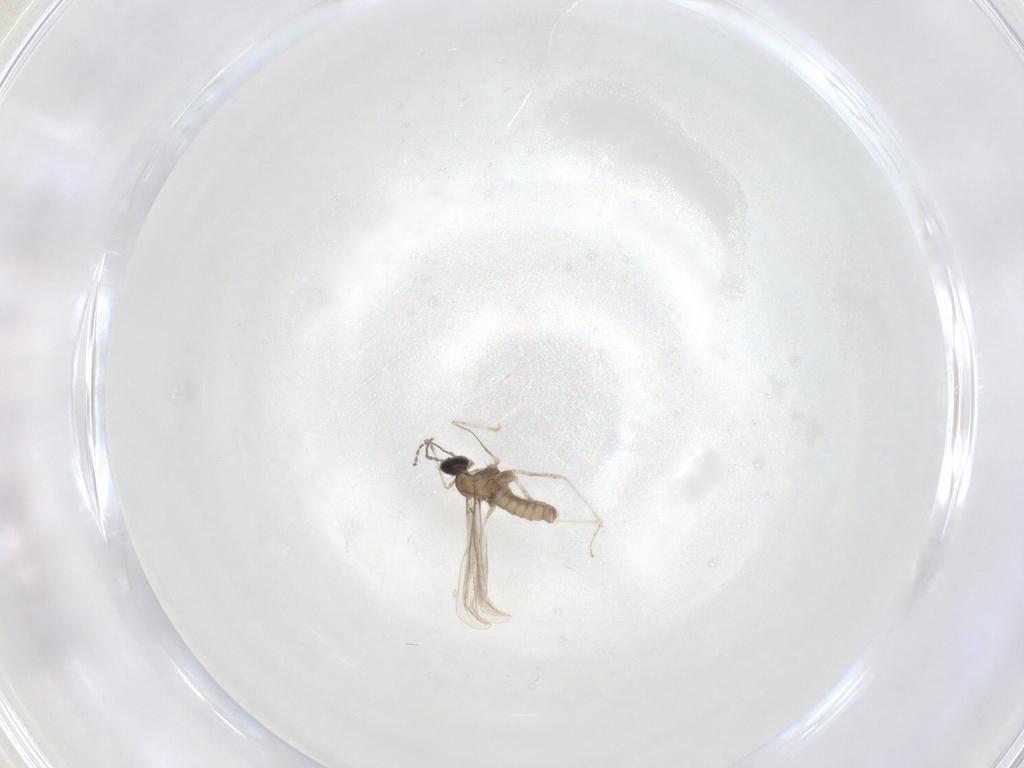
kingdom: Animalia
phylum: Arthropoda
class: Insecta
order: Diptera
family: Cecidomyiidae
